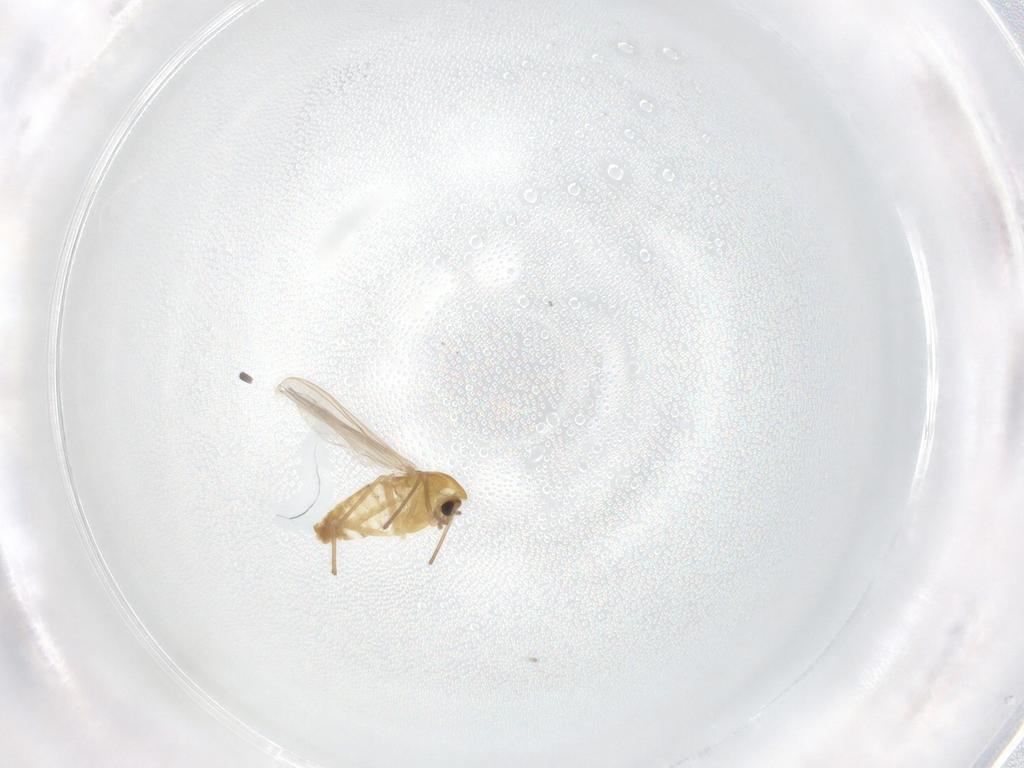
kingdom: Animalia
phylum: Arthropoda
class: Insecta
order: Diptera
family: Chironomidae
